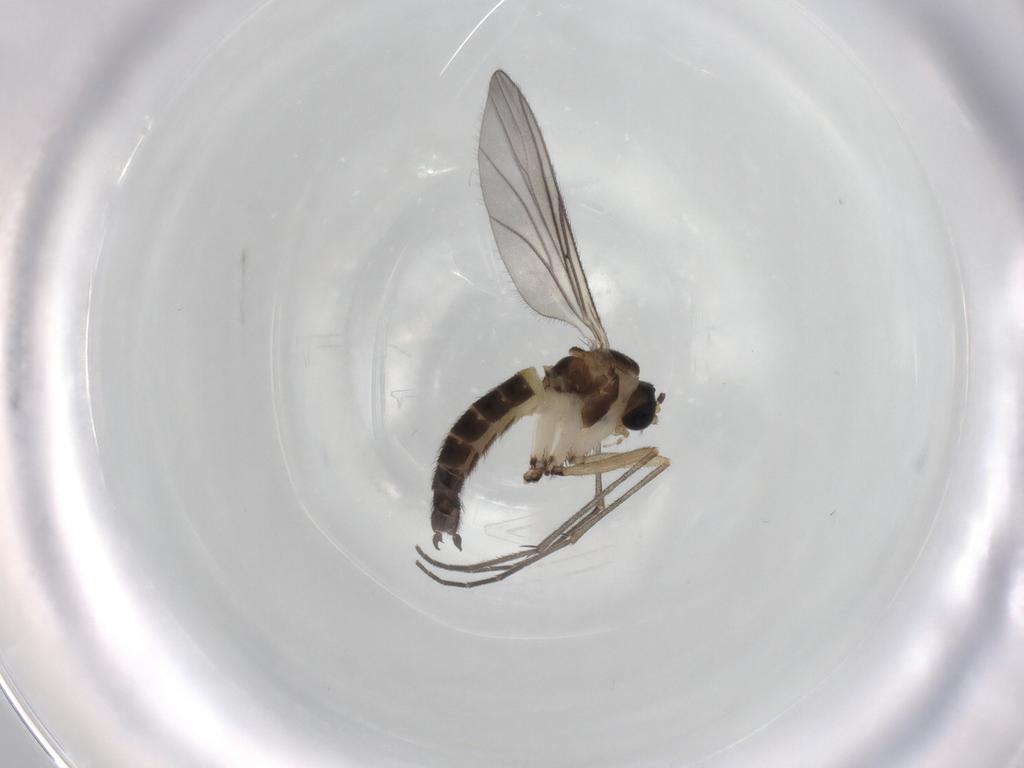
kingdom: Animalia
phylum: Arthropoda
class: Insecta
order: Diptera
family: Sciaridae
